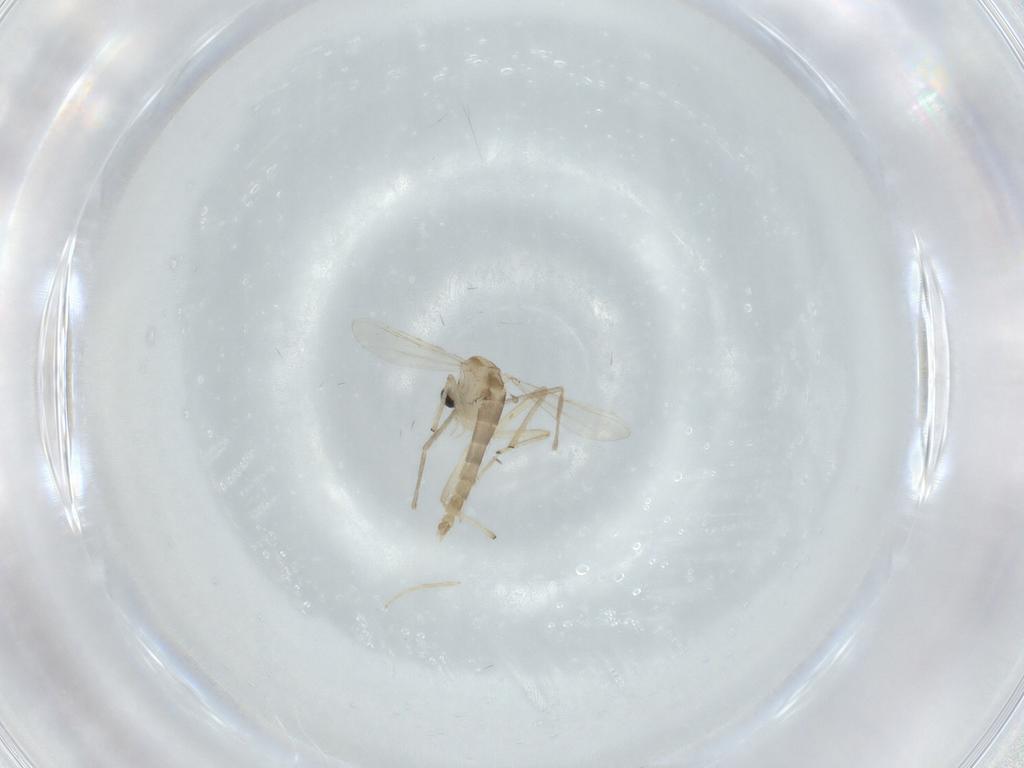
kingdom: Animalia
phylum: Arthropoda
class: Insecta
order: Diptera
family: Chironomidae
